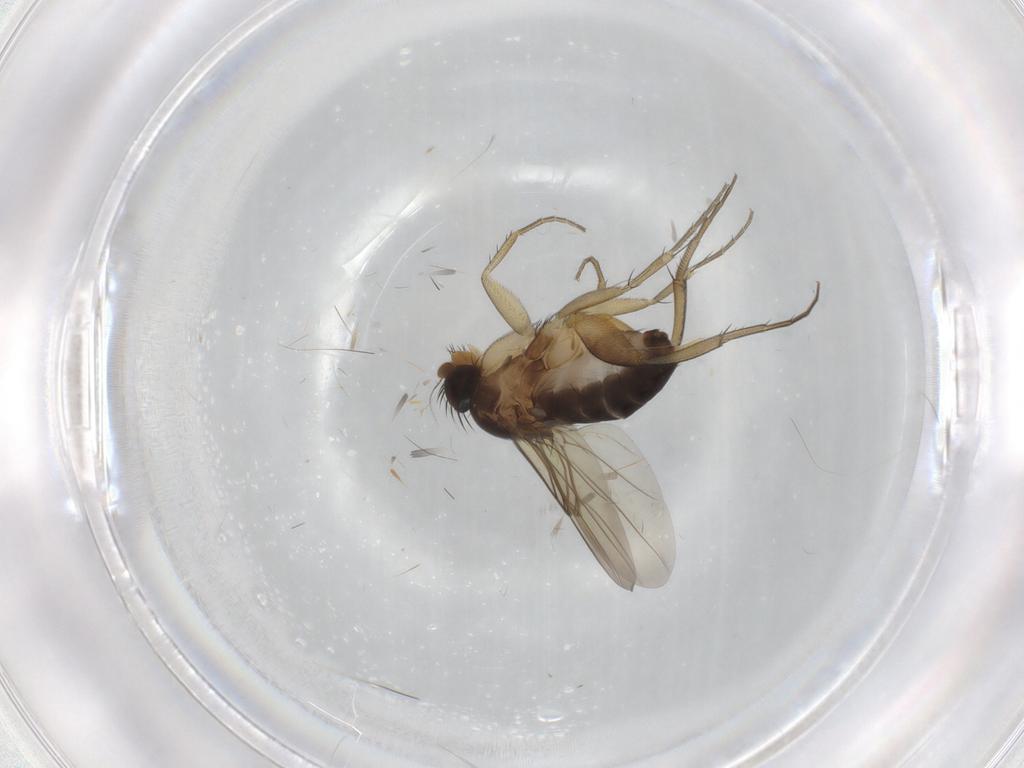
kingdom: Animalia
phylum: Arthropoda
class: Insecta
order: Diptera
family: Phoridae
